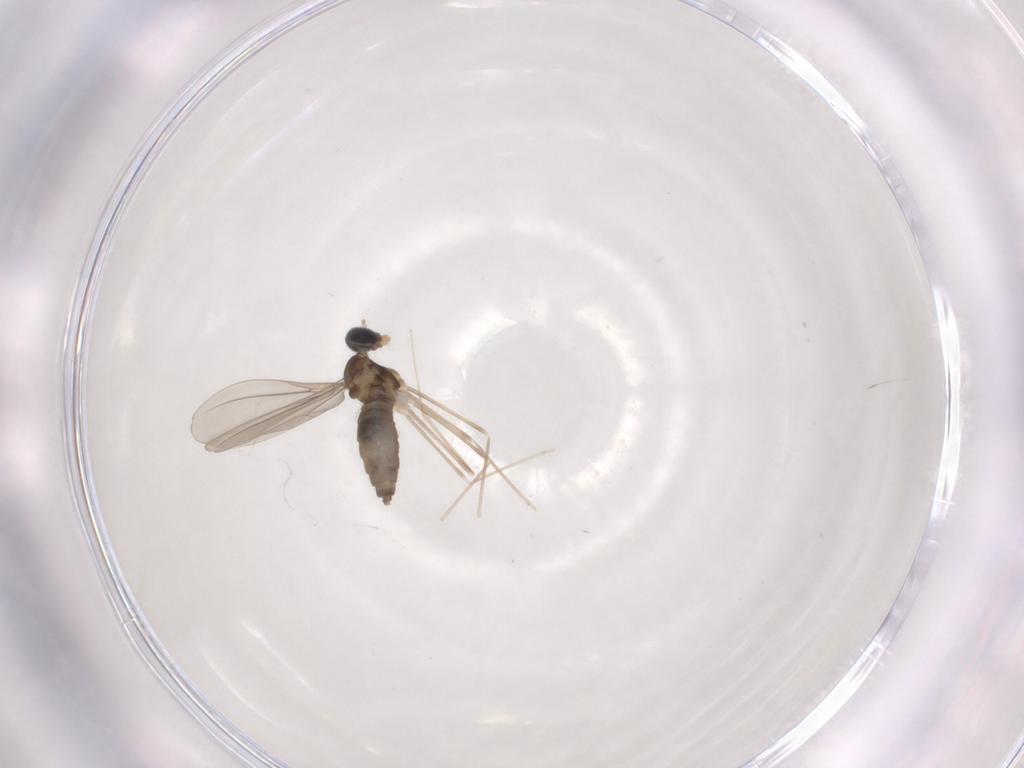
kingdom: Animalia
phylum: Arthropoda
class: Insecta
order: Diptera
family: Cecidomyiidae
